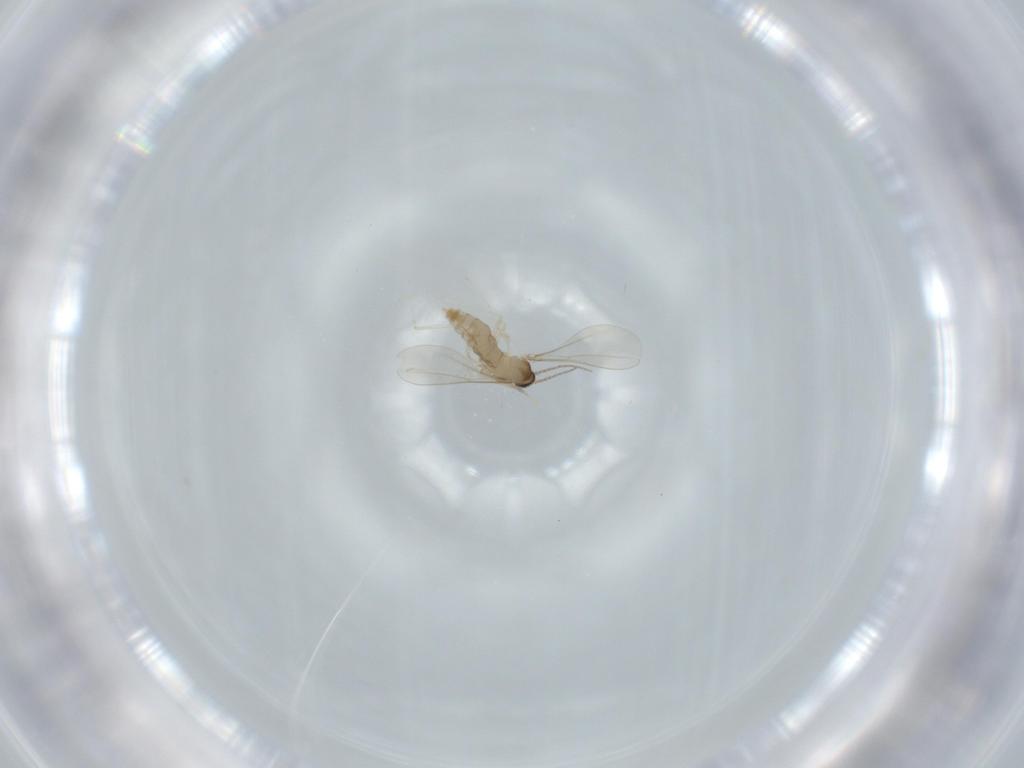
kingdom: Animalia
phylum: Arthropoda
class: Insecta
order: Diptera
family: Cecidomyiidae
